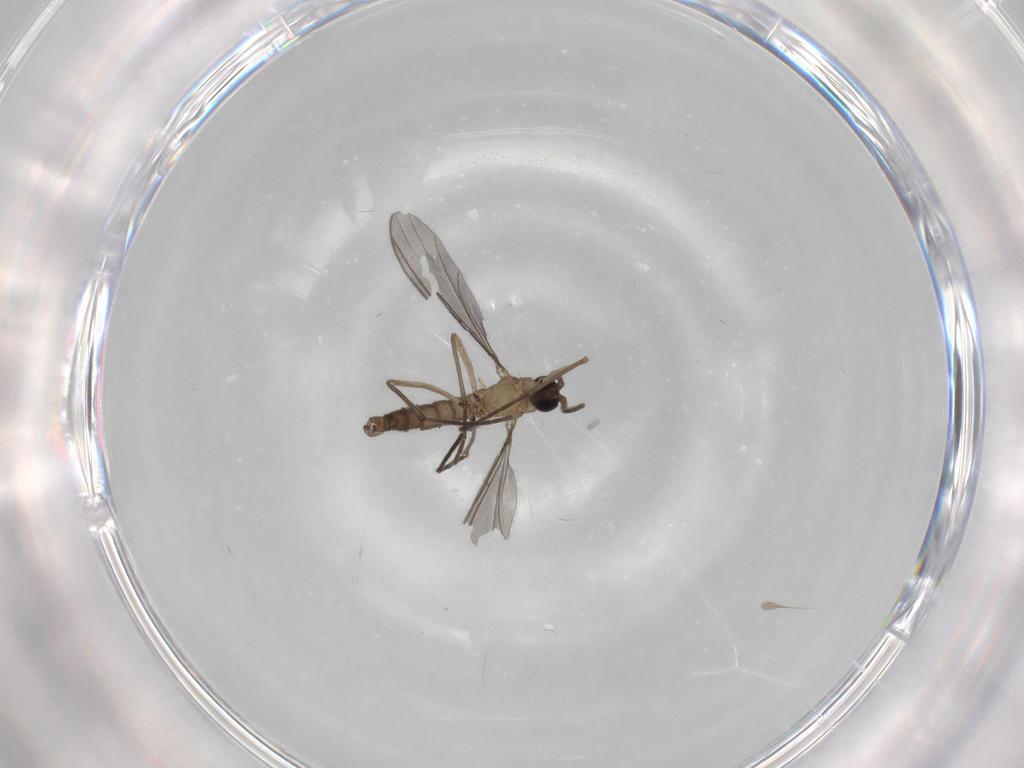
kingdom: Animalia
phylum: Arthropoda
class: Insecta
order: Diptera
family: Sciaridae
